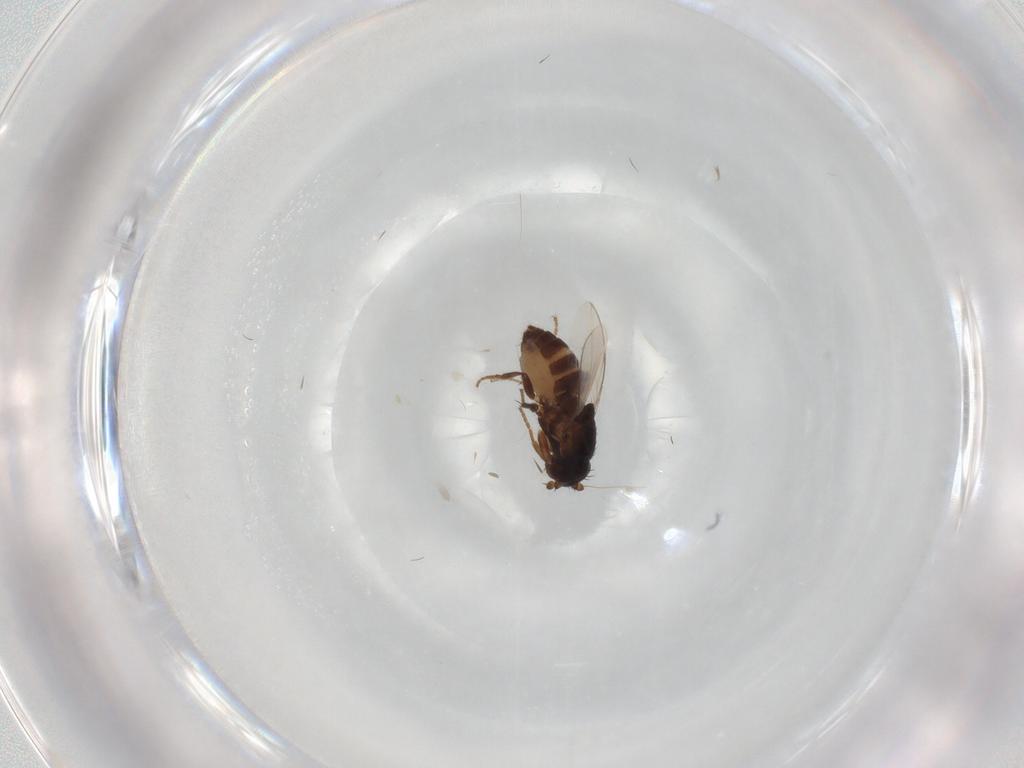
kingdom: Animalia
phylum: Arthropoda
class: Insecta
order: Diptera
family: Sphaeroceridae
